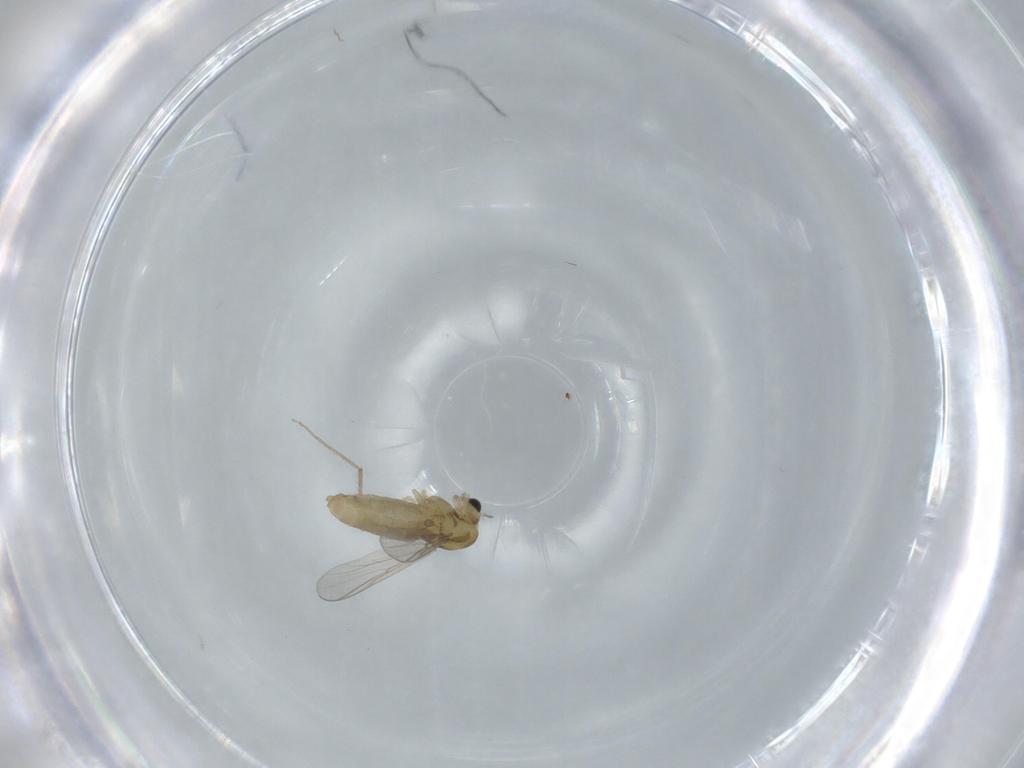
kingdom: Animalia
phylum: Arthropoda
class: Insecta
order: Diptera
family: Chironomidae
